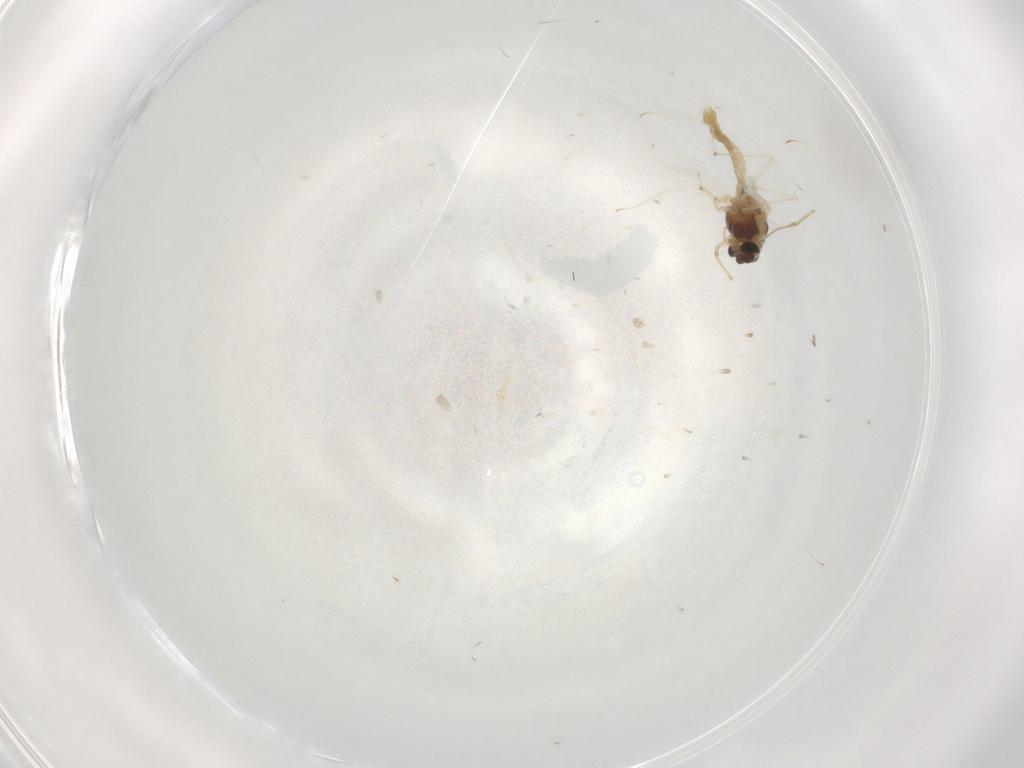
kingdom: Animalia
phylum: Arthropoda
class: Insecta
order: Diptera
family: Chironomidae
